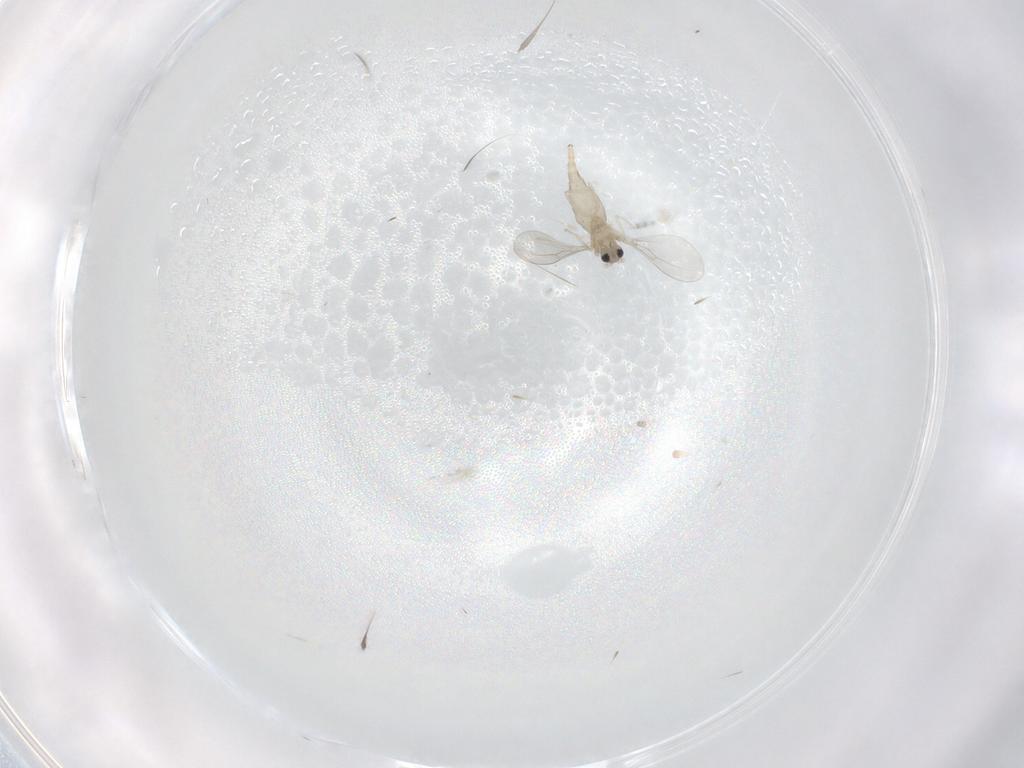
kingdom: Animalia
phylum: Arthropoda
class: Insecta
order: Diptera
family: Cecidomyiidae
